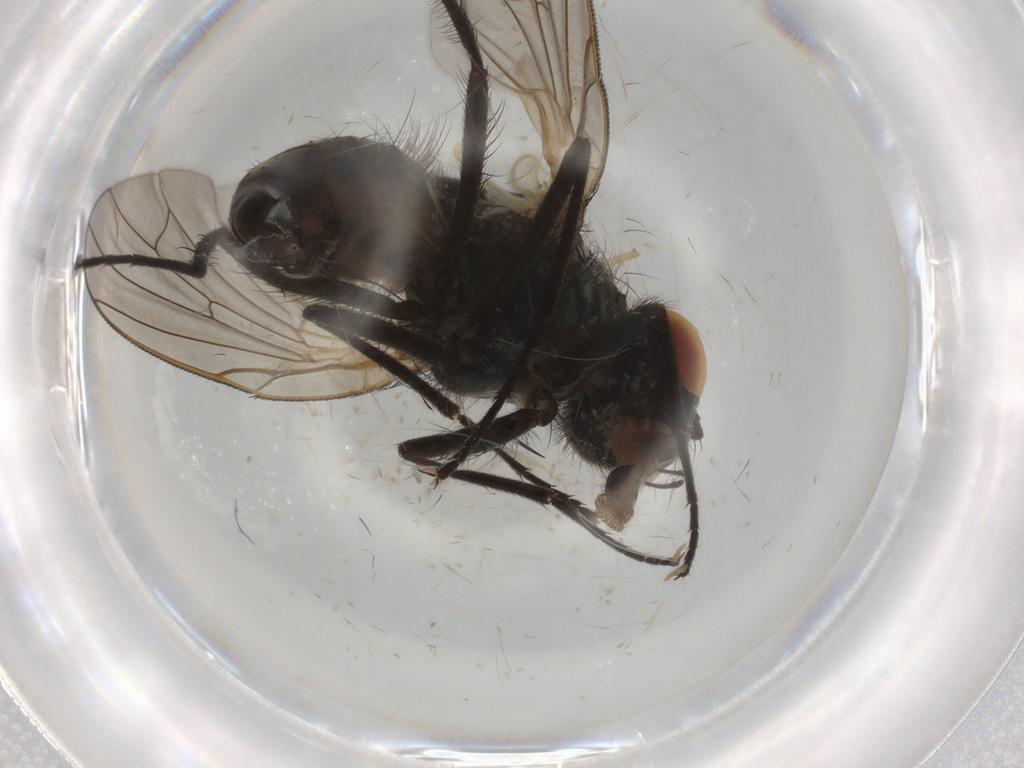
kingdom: Animalia
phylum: Arthropoda
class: Insecta
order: Diptera
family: Anthomyiidae
